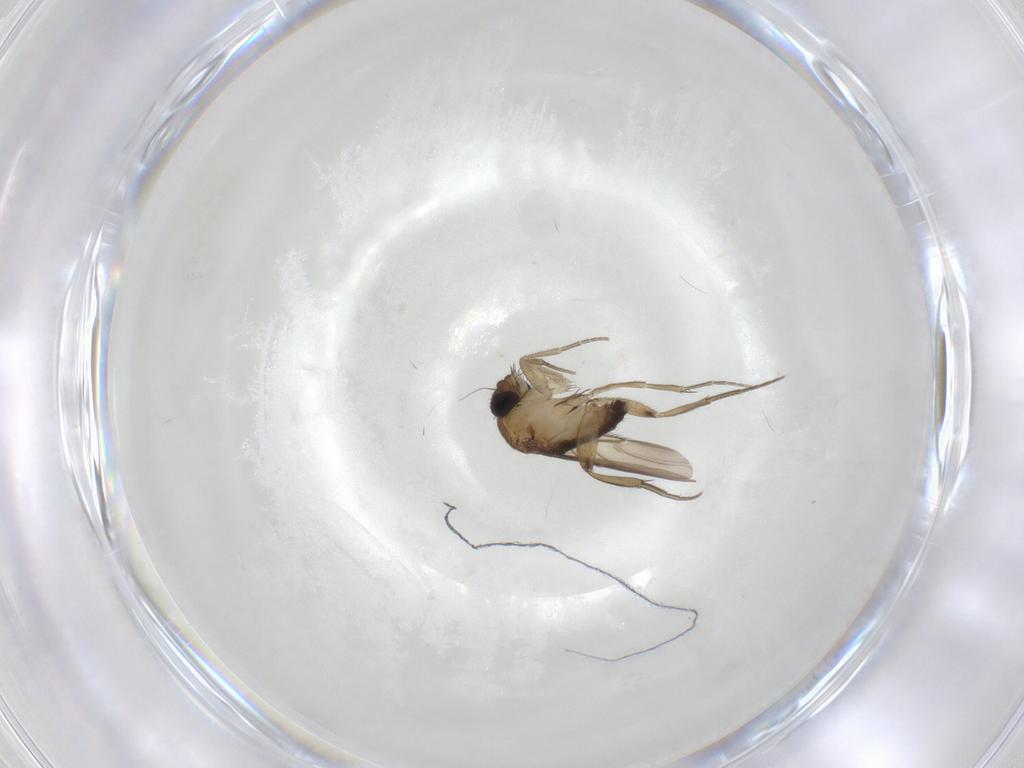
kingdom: Animalia
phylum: Arthropoda
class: Insecta
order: Diptera
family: Phoridae
